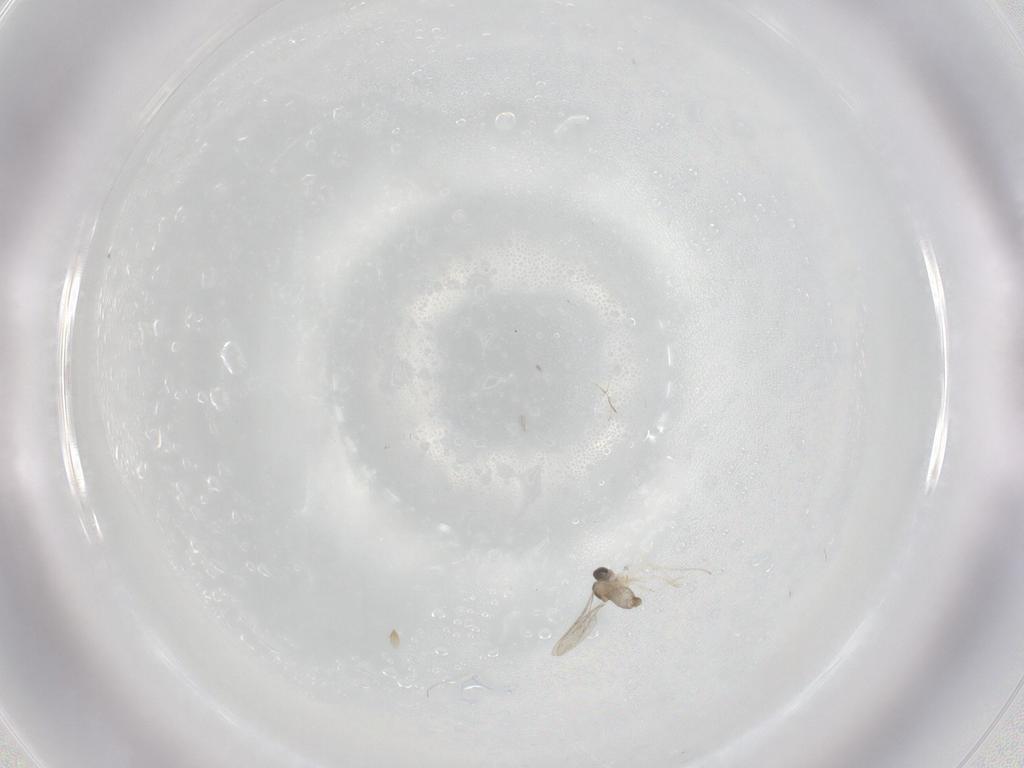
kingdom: Animalia
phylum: Arthropoda
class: Insecta
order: Diptera
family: Cecidomyiidae
